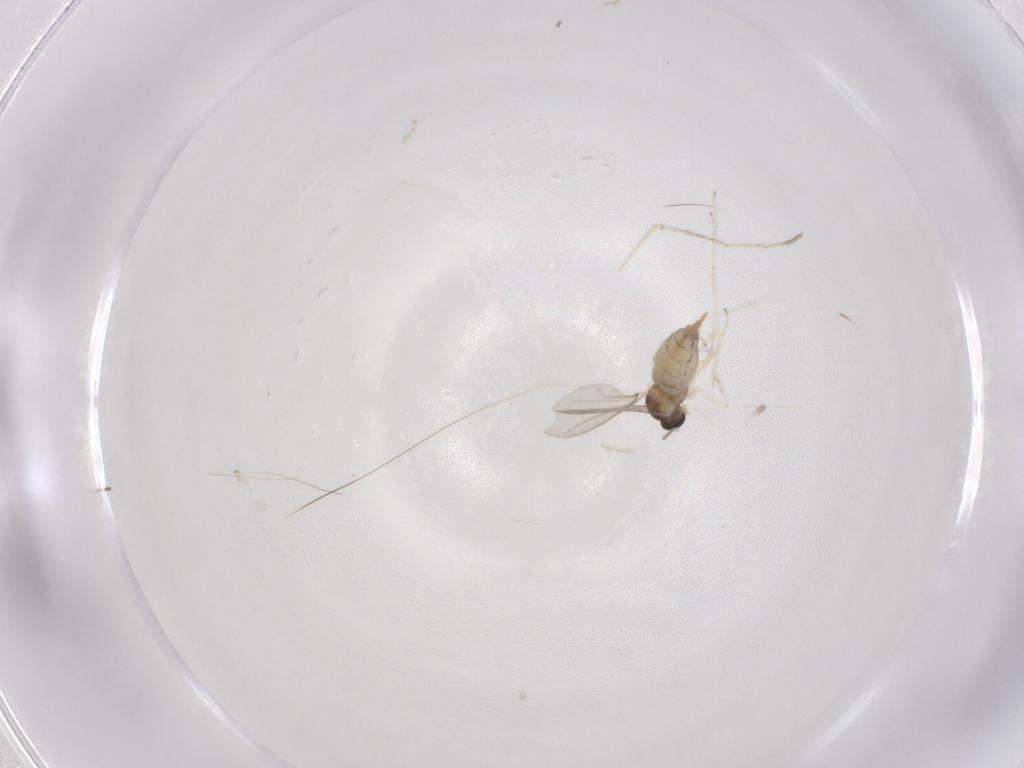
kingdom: Animalia
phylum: Arthropoda
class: Insecta
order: Diptera
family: Cecidomyiidae
